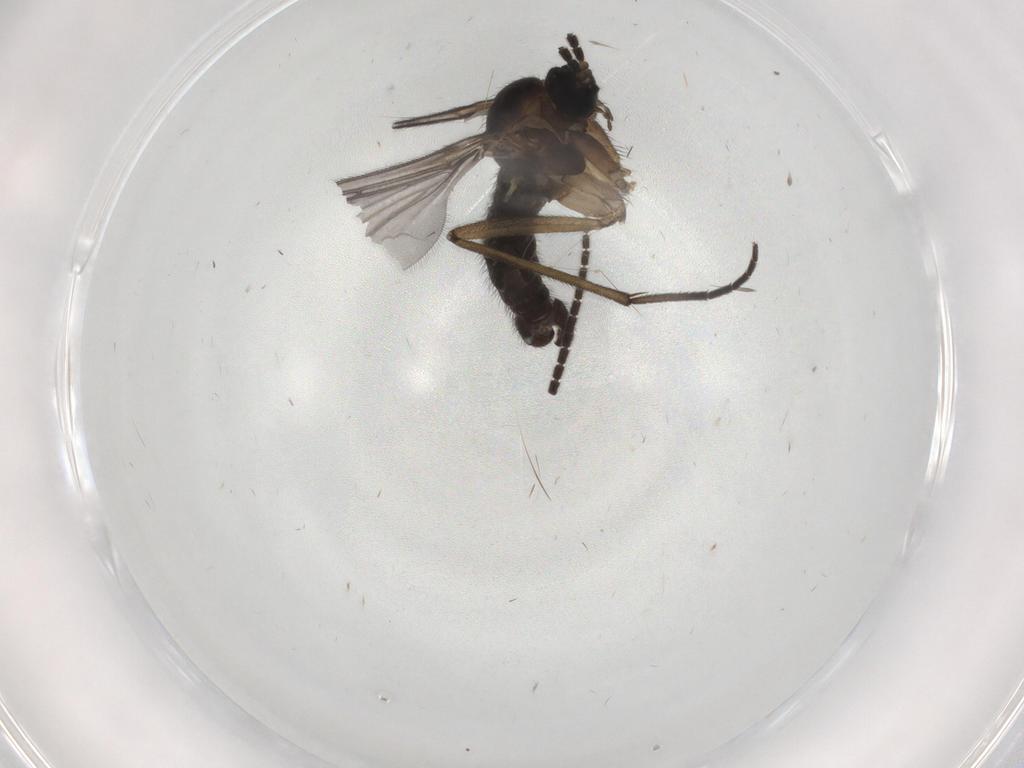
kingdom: Animalia
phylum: Arthropoda
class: Insecta
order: Diptera
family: Sciaridae
